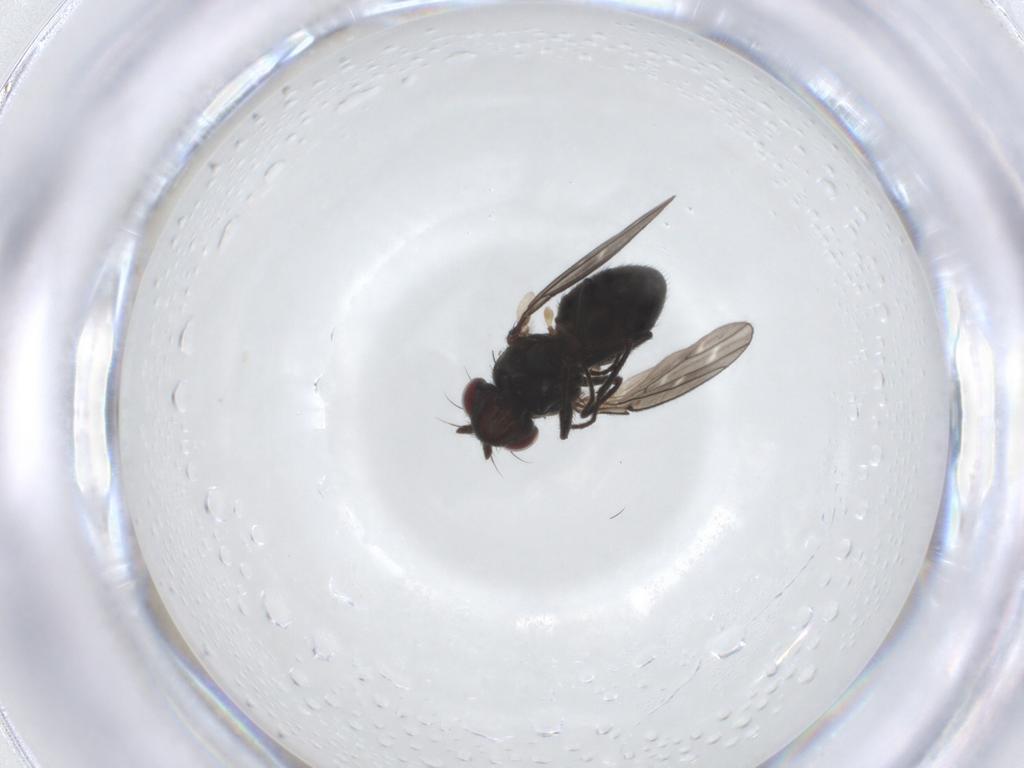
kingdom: Animalia
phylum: Arthropoda
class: Insecta
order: Diptera
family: Ephydridae
